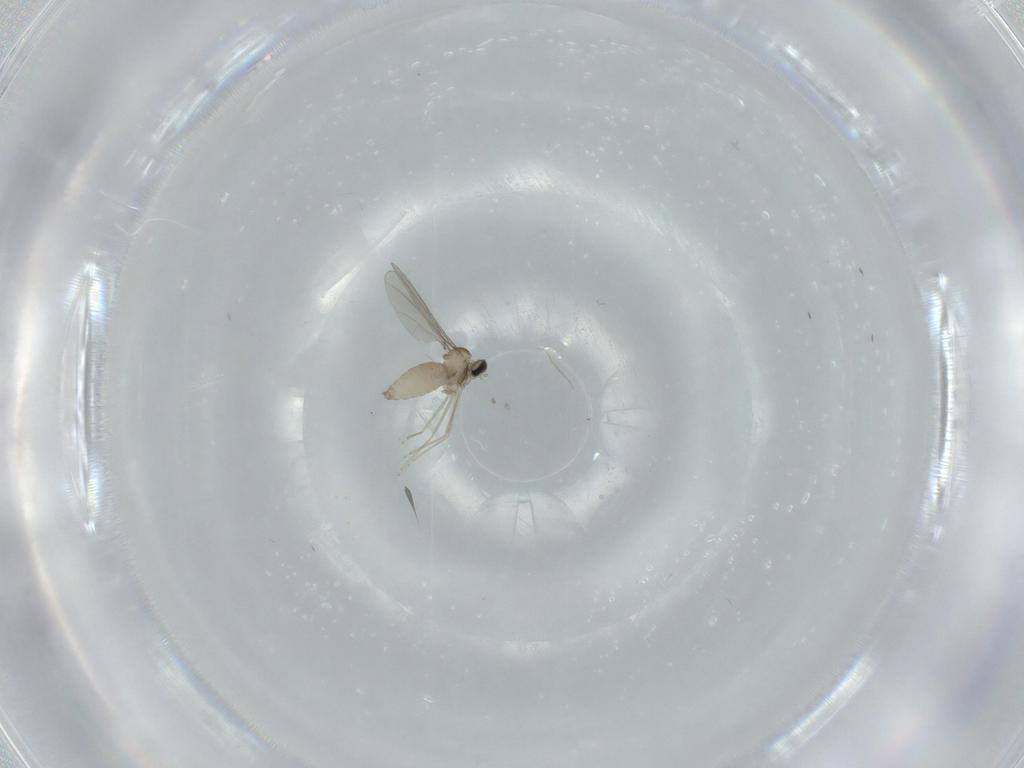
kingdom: Animalia
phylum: Arthropoda
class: Insecta
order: Diptera
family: Cecidomyiidae
